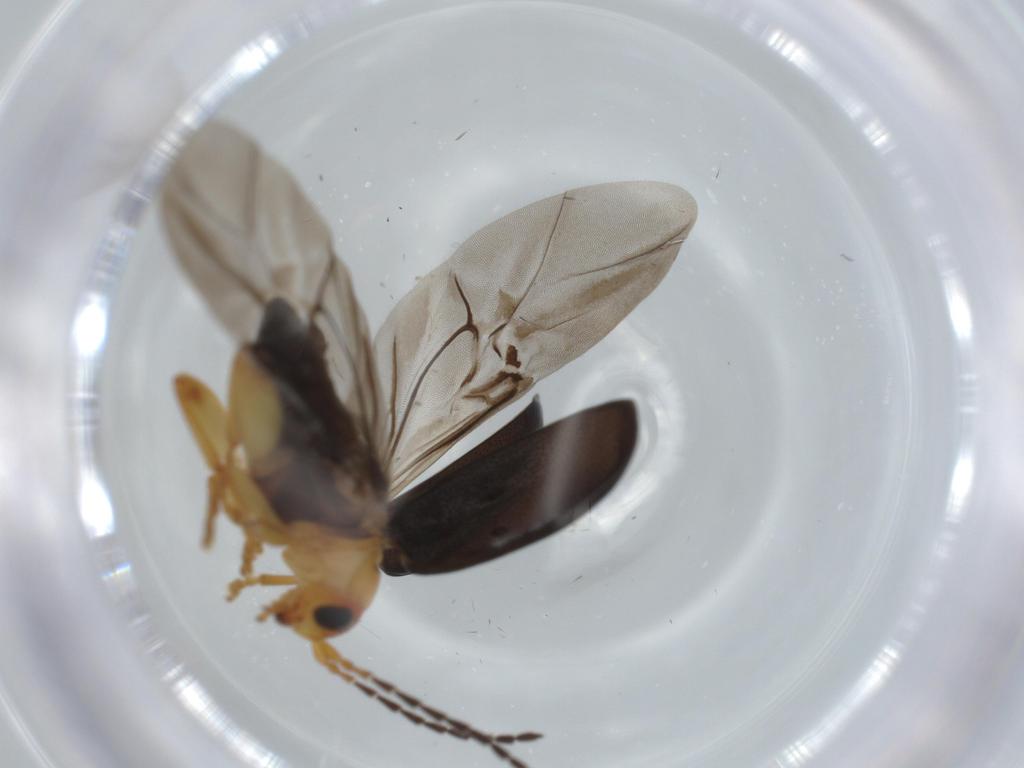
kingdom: Animalia
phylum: Arthropoda
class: Insecta
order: Coleoptera
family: Chrysomelidae
